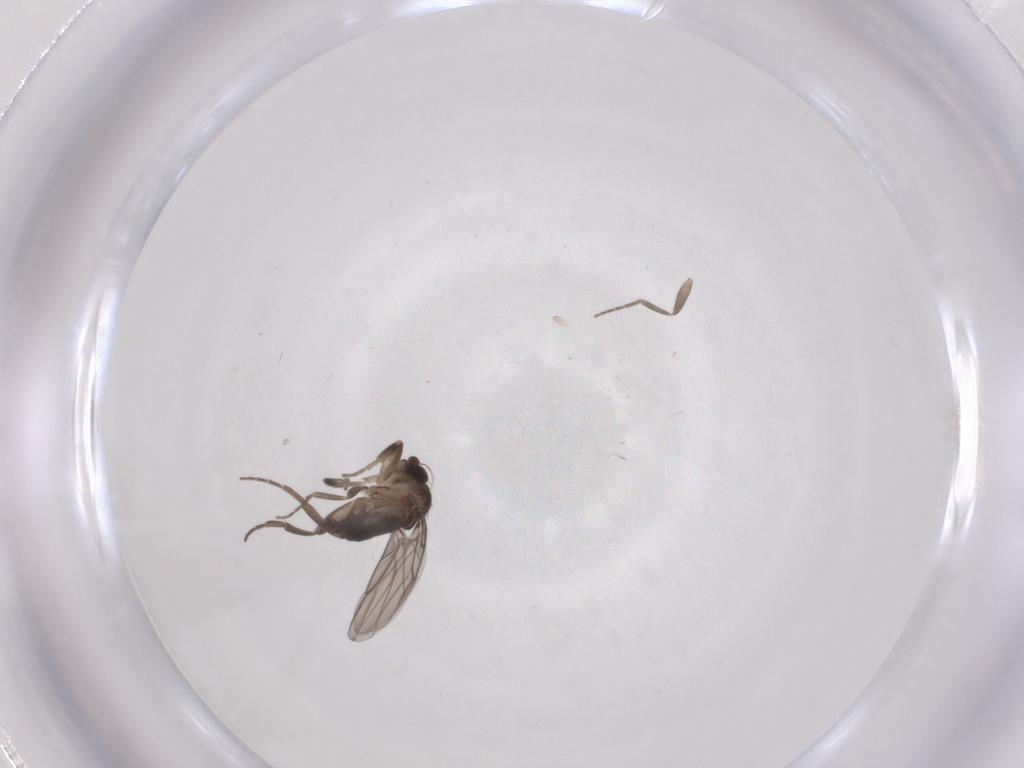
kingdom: Animalia
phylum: Arthropoda
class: Insecta
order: Diptera
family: Phoridae
